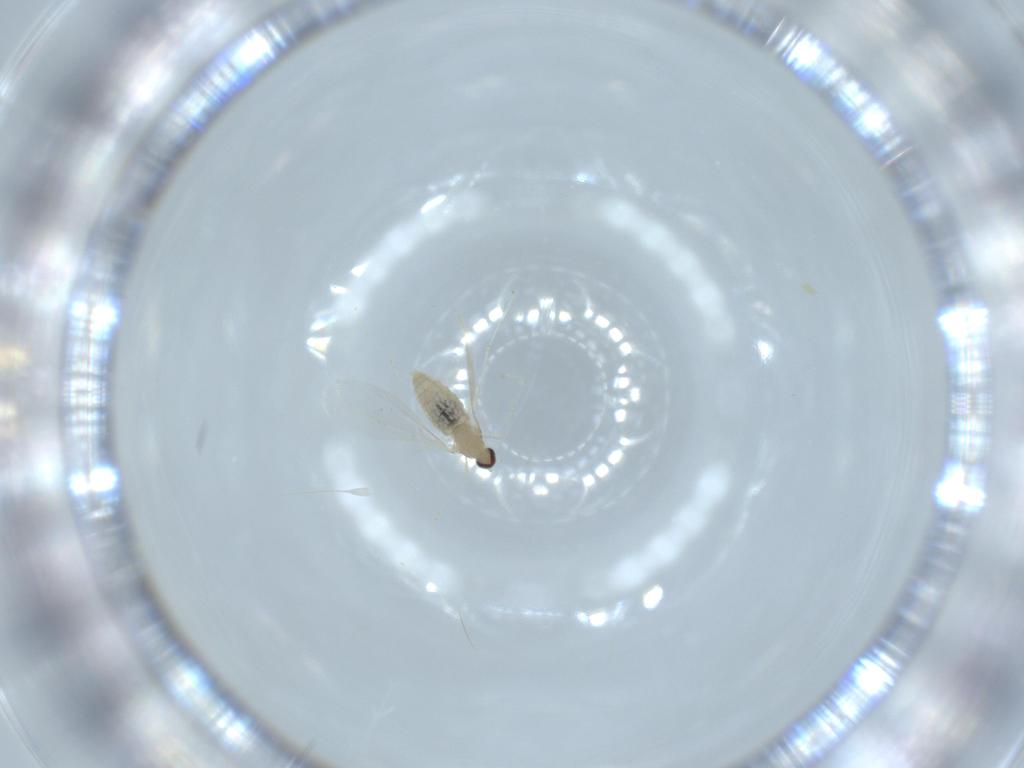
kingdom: Animalia
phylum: Arthropoda
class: Insecta
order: Diptera
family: Cecidomyiidae
